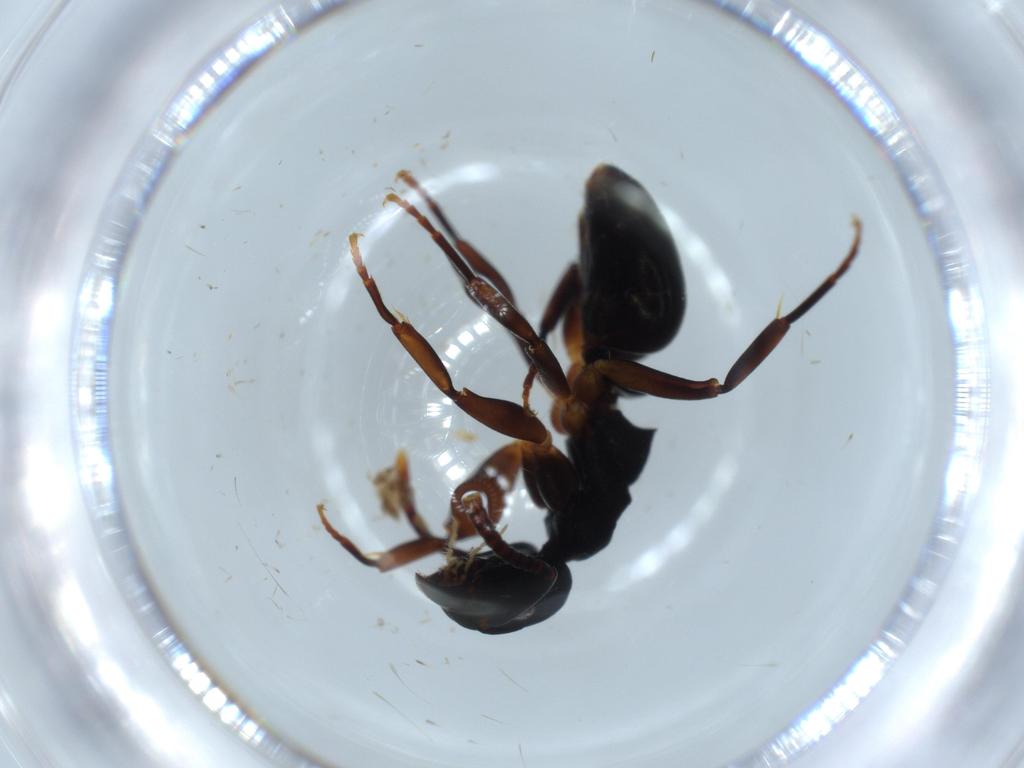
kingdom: Animalia
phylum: Arthropoda
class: Insecta
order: Hymenoptera
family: Formicidae
